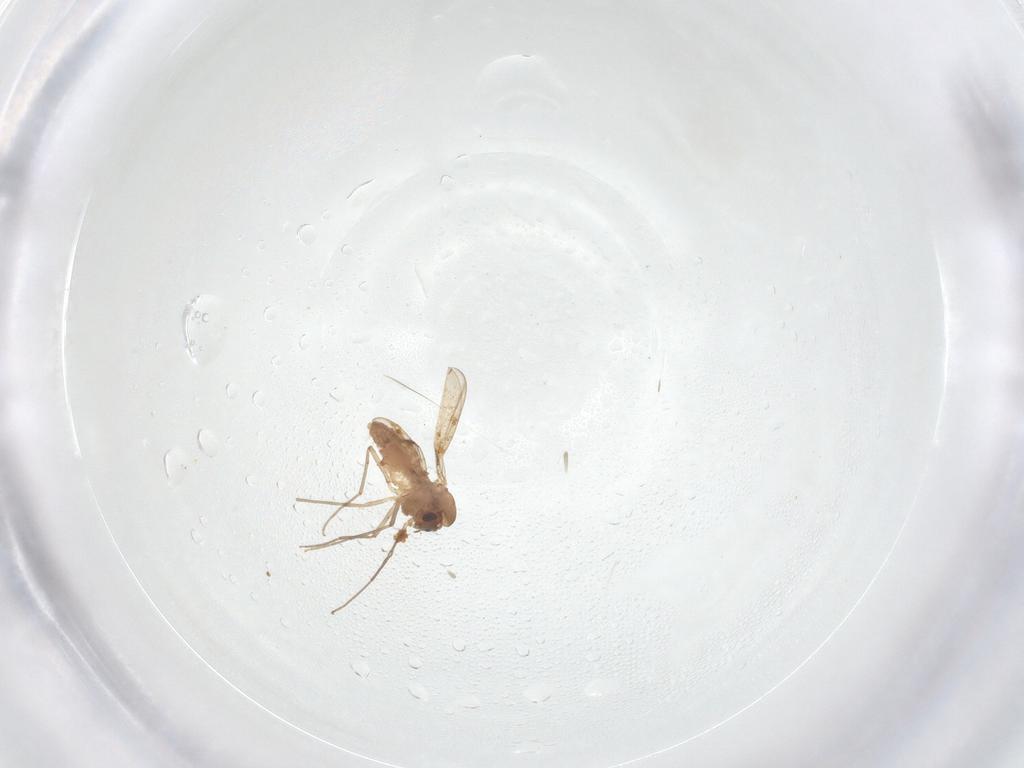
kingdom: Animalia
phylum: Arthropoda
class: Insecta
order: Diptera
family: Chironomidae
